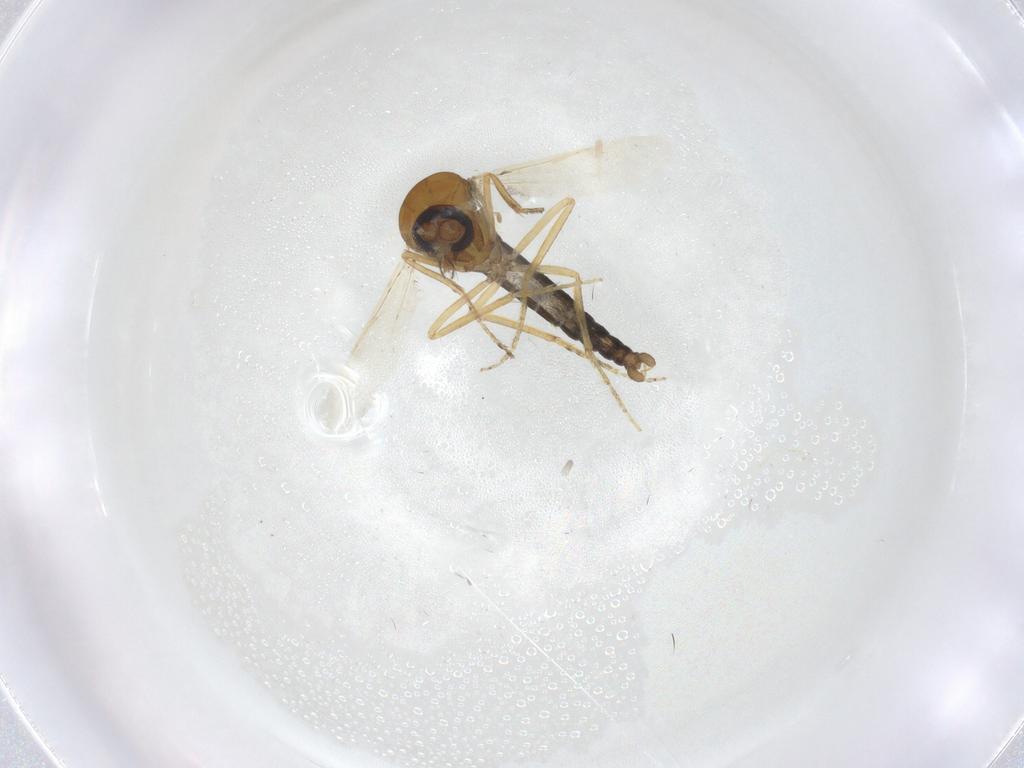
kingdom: Animalia
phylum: Arthropoda
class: Insecta
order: Diptera
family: Ceratopogonidae
